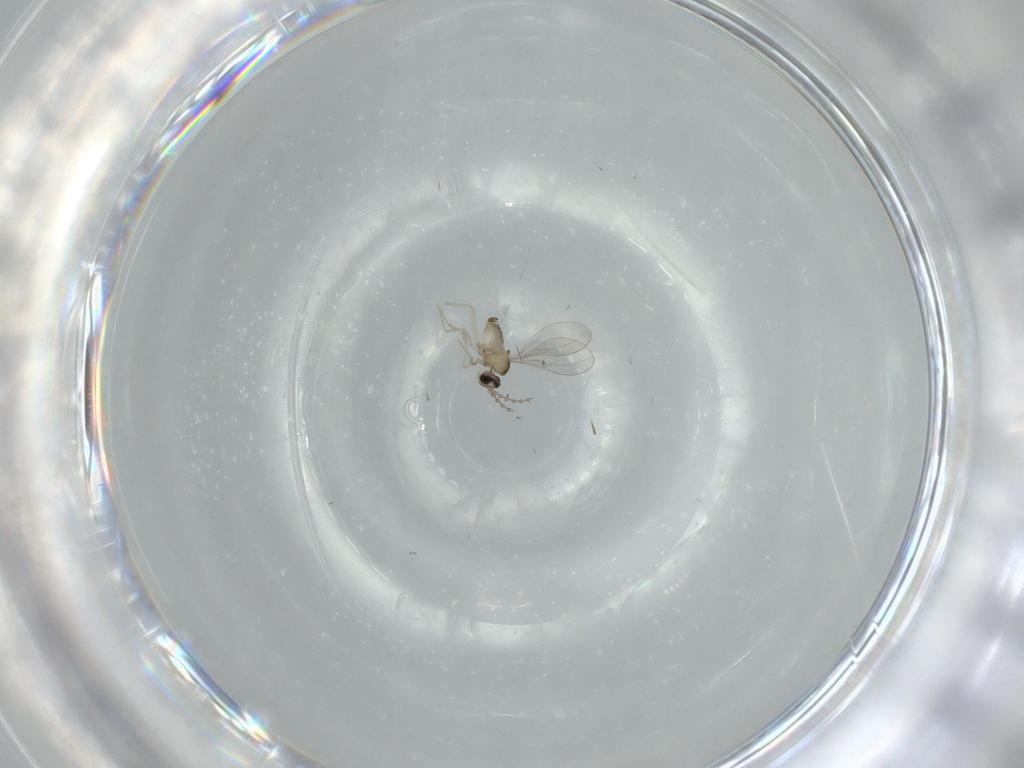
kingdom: Animalia
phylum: Arthropoda
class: Insecta
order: Diptera
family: Cecidomyiidae
